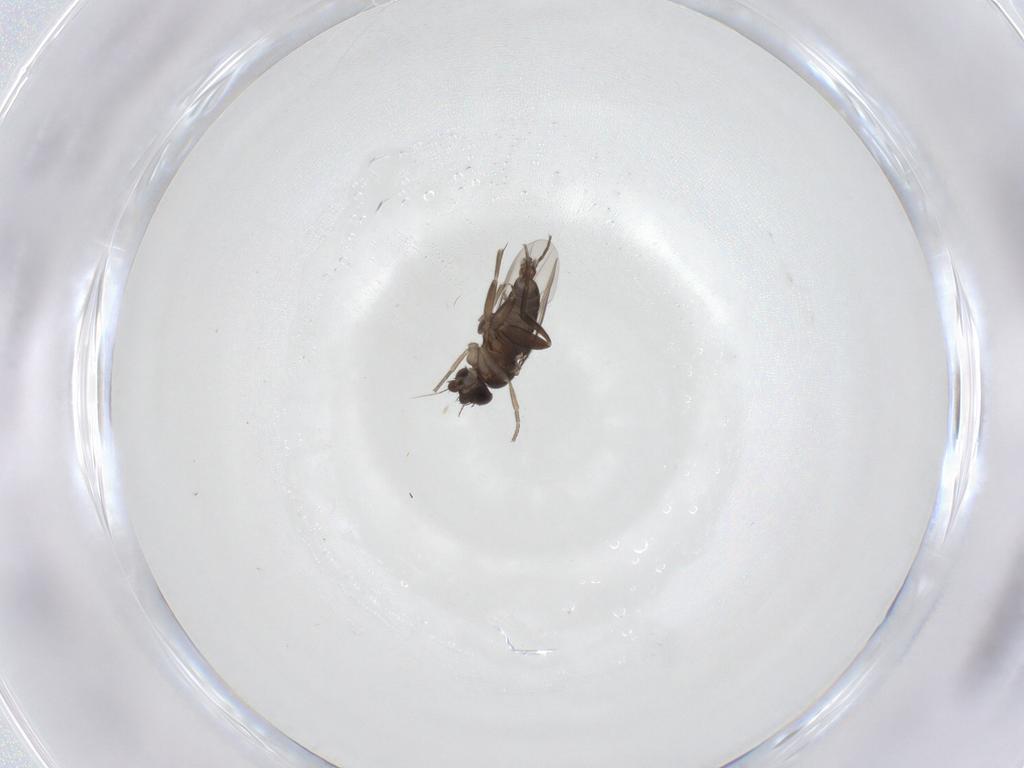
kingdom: Animalia
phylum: Arthropoda
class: Insecta
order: Diptera
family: Phoridae
